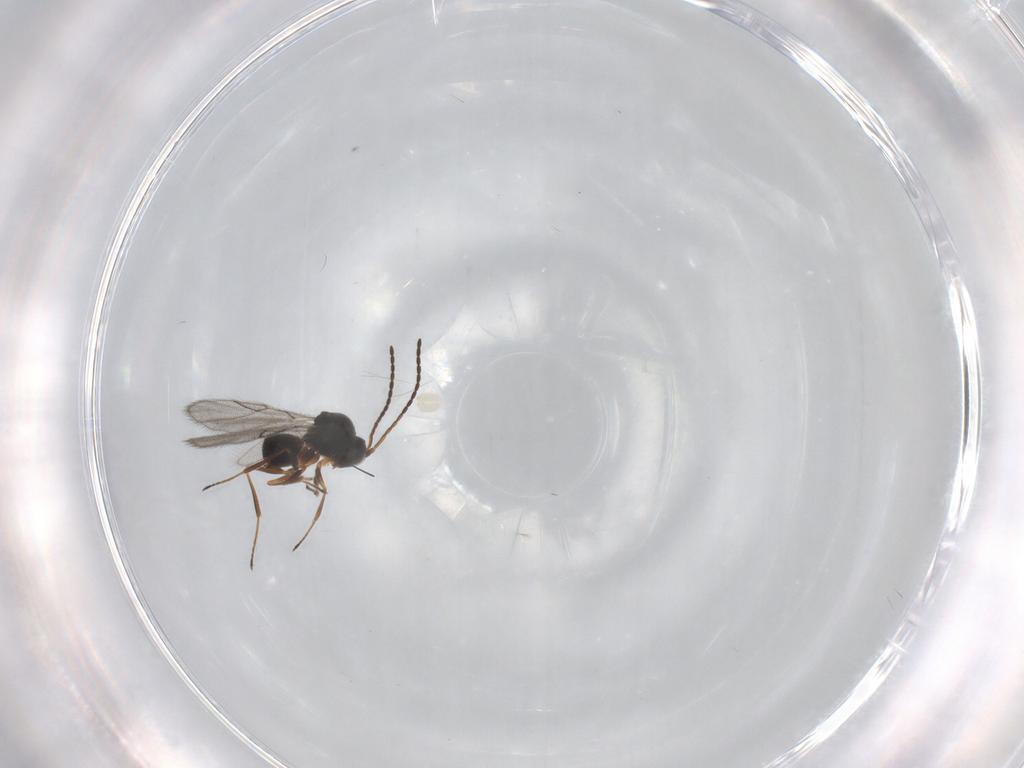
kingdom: Animalia
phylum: Arthropoda
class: Insecta
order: Hymenoptera
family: Figitidae
